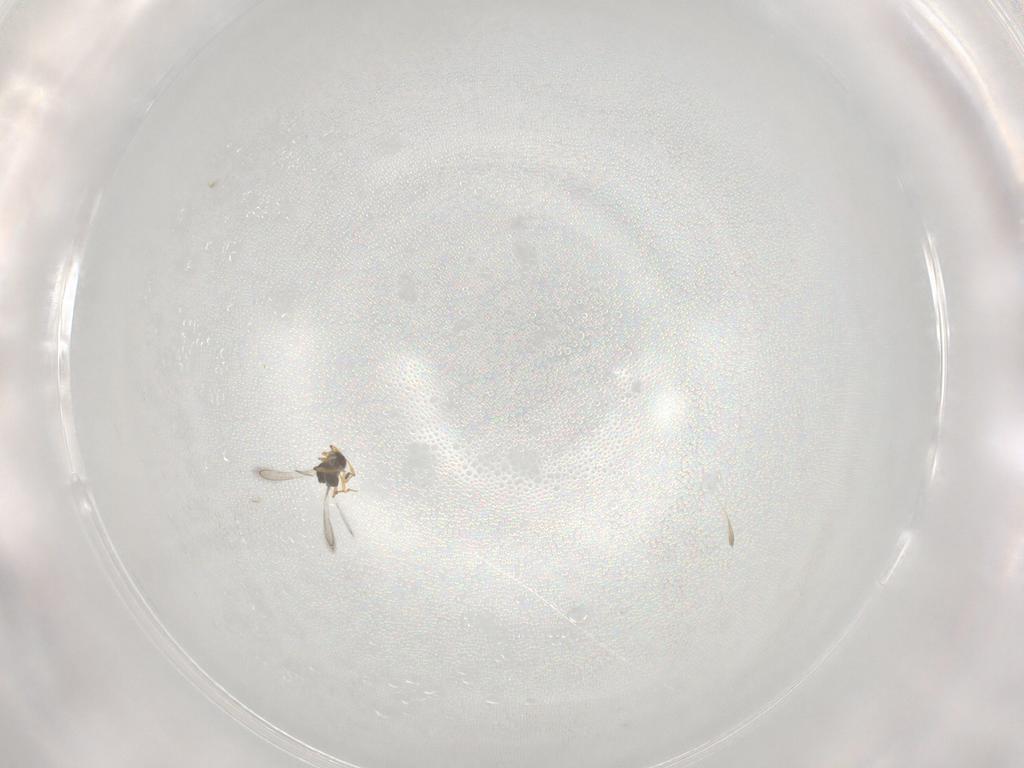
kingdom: Animalia
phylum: Arthropoda
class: Insecta
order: Hymenoptera
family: Platygastridae
